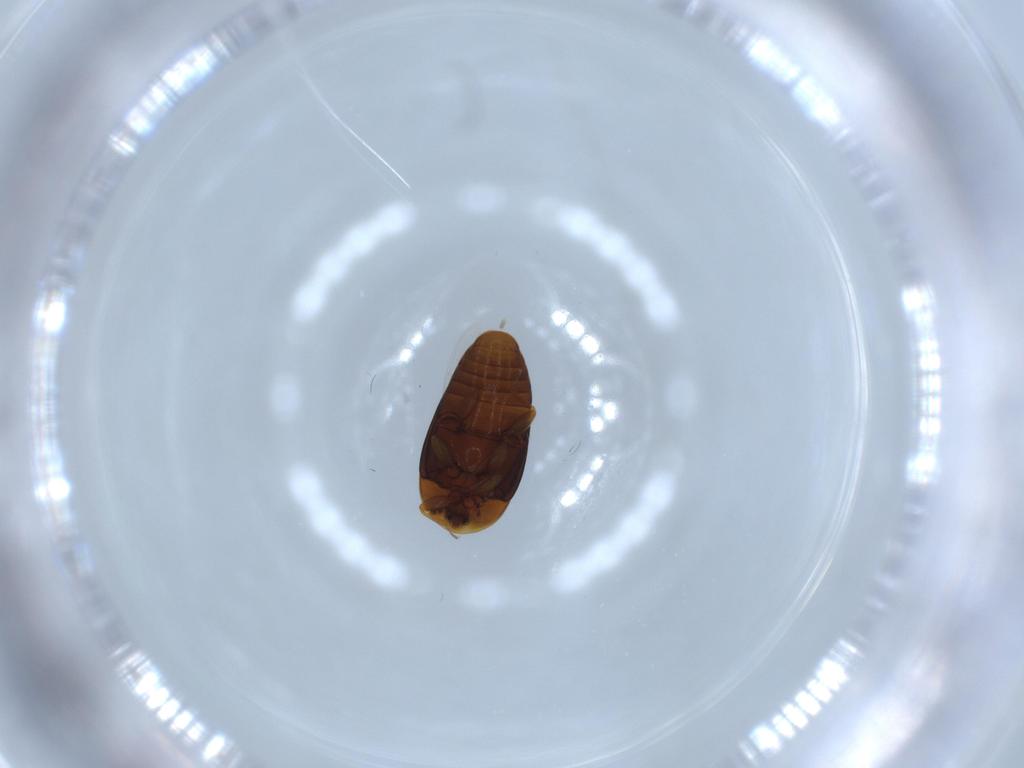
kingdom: Animalia
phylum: Arthropoda
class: Insecta
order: Coleoptera
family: Corylophidae
